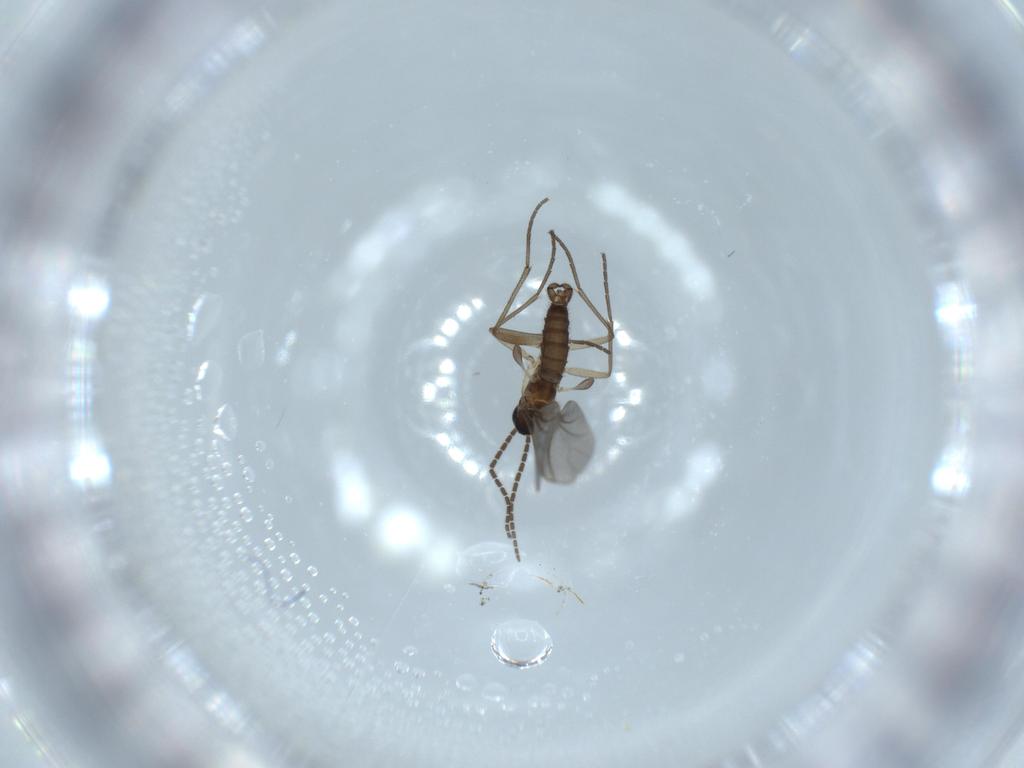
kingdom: Animalia
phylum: Arthropoda
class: Insecta
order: Diptera
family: Sciaridae
